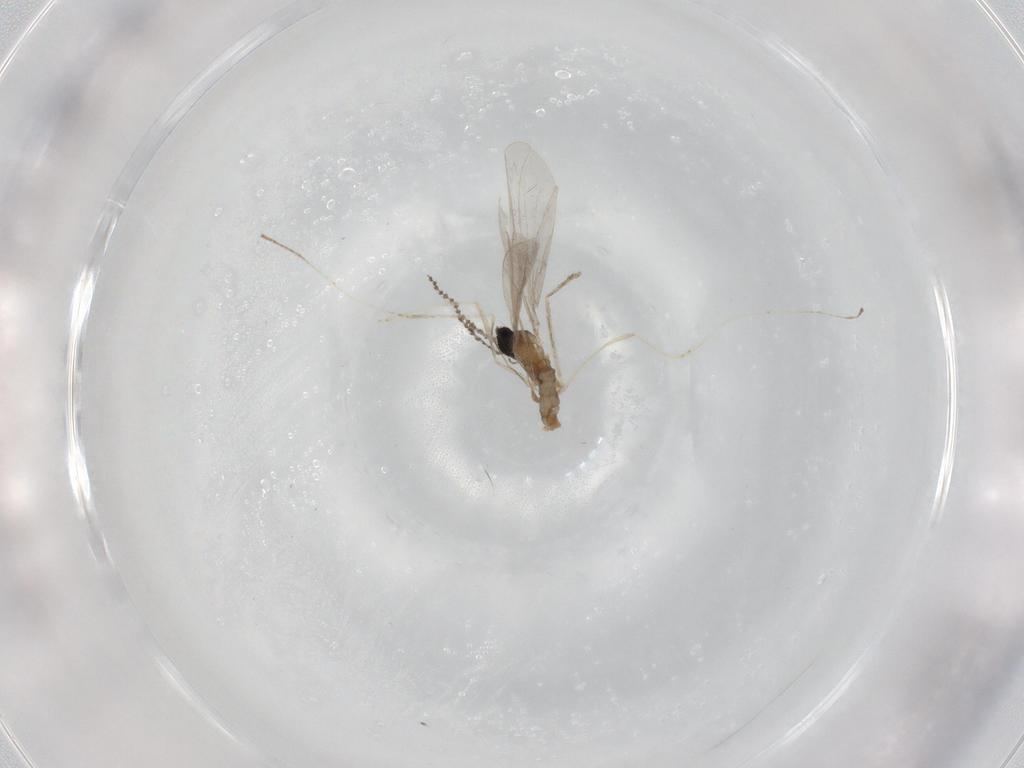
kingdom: Animalia
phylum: Arthropoda
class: Insecta
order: Diptera
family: Cecidomyiidae
